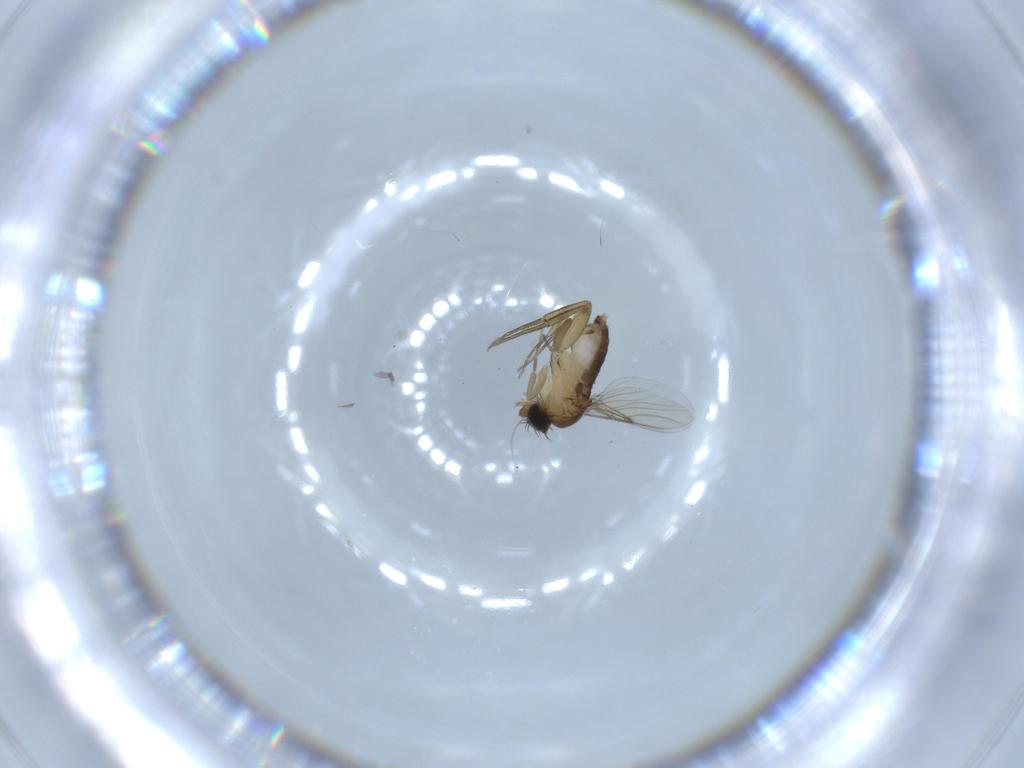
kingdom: Animalia
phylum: Arthropoda
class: Insecta
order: Diptera
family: Phoridae
